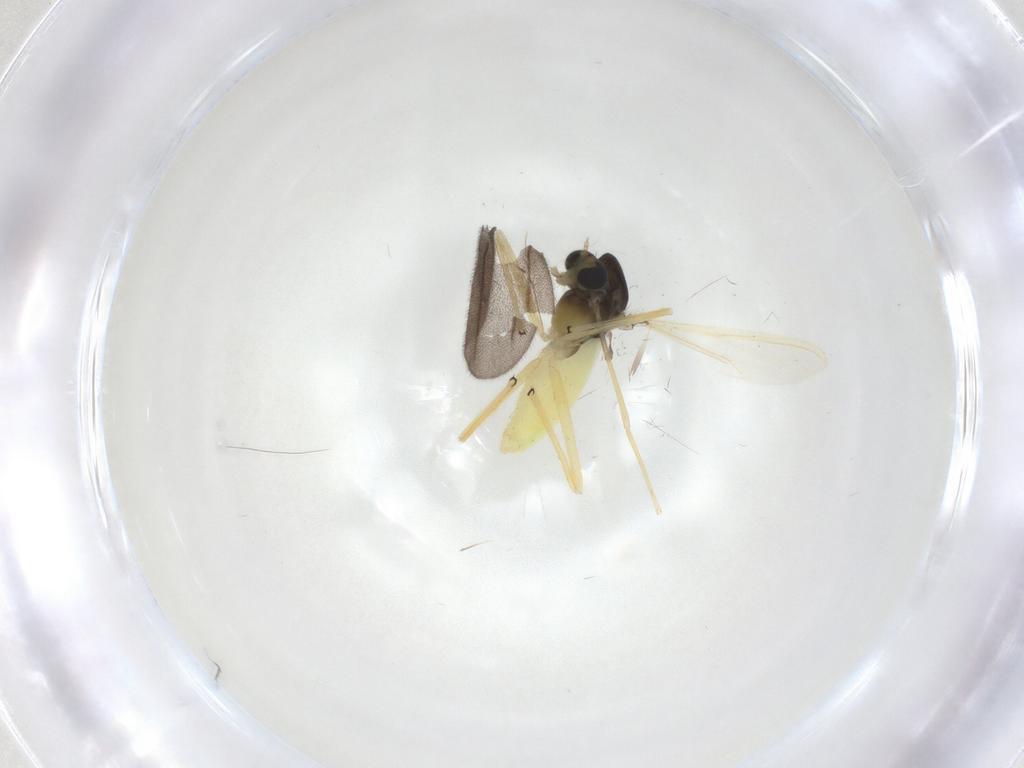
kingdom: Animalia
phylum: Arthropoda
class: Insecta
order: Diptera
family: Chironomidae
